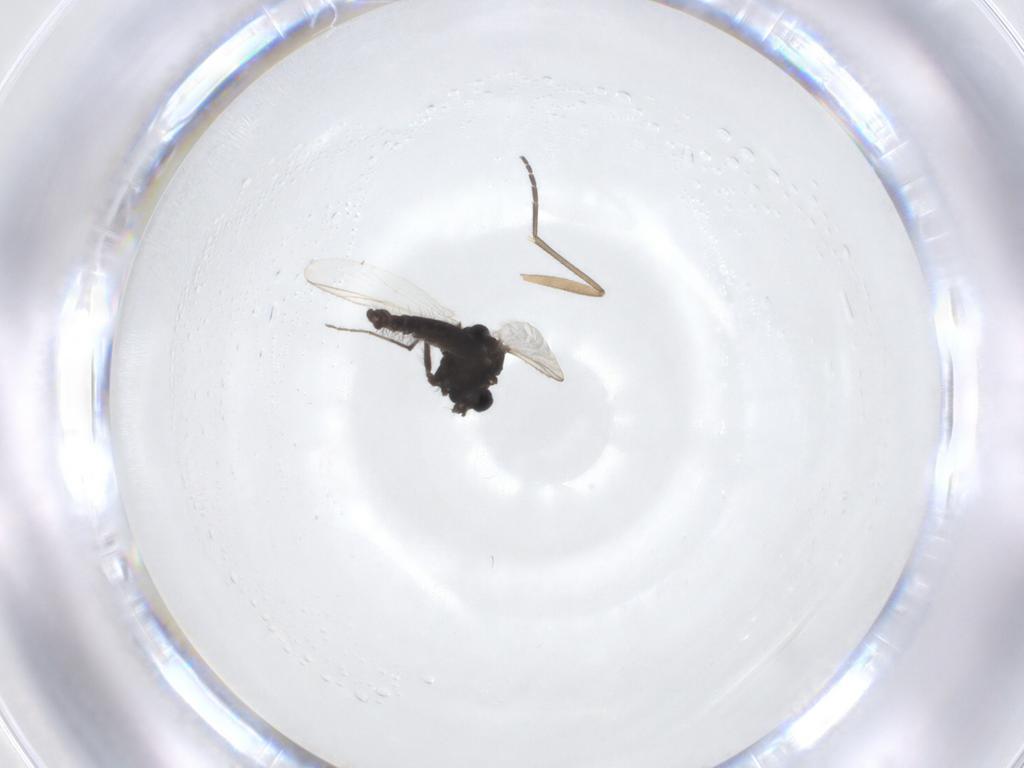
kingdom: Animalia
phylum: Arthropoda
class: Insecta
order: Diptera
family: Chironomidae
